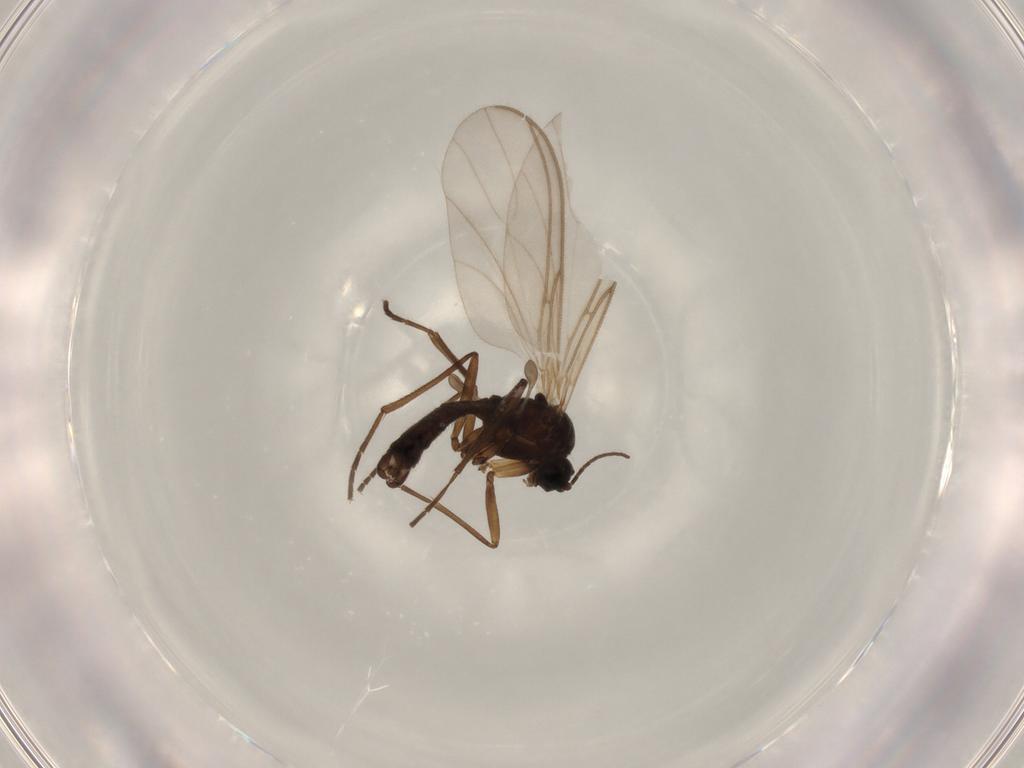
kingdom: Animalia
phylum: Arthropoda
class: Insecta
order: Diptera
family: Sciaridae
